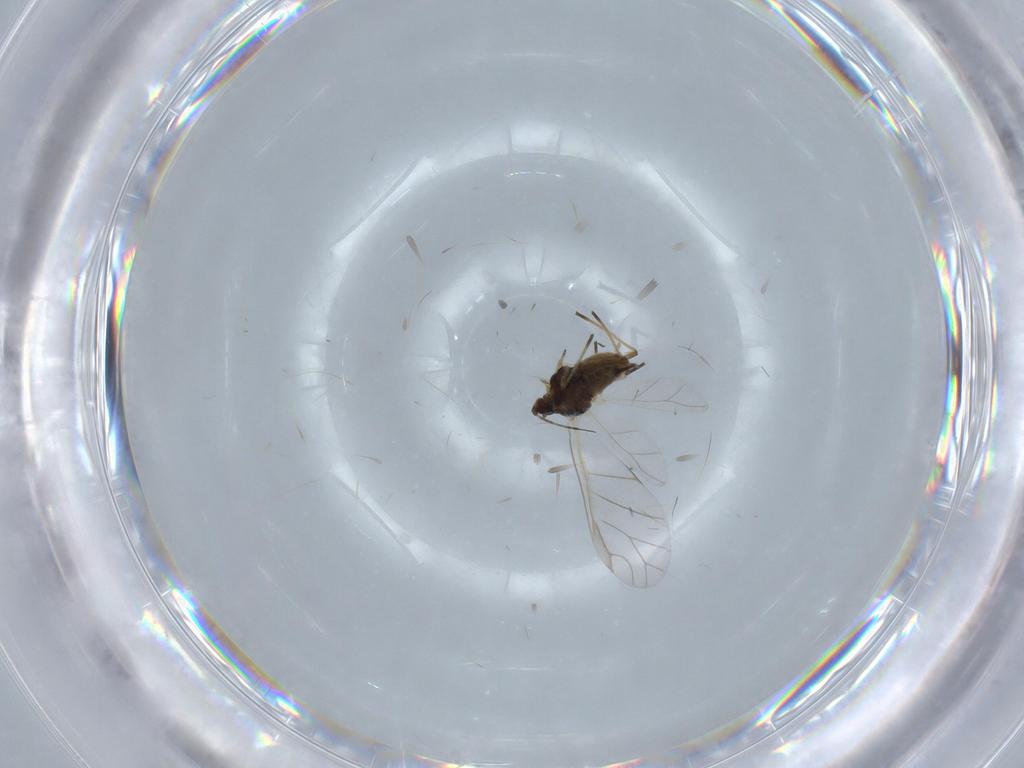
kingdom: Animalia
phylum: Arthropoda
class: Insecta
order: Hemiptera
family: Aphididae
